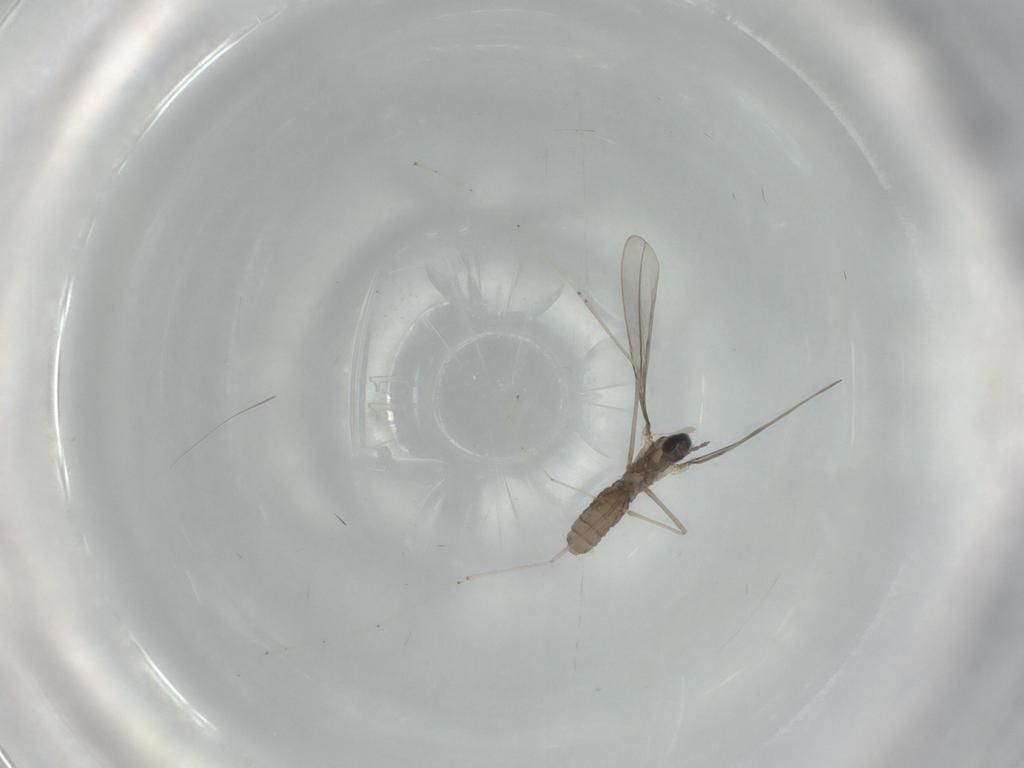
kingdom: Animalia
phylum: Arthropoda
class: Insecta
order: Diptera
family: Cecidomyiidae
